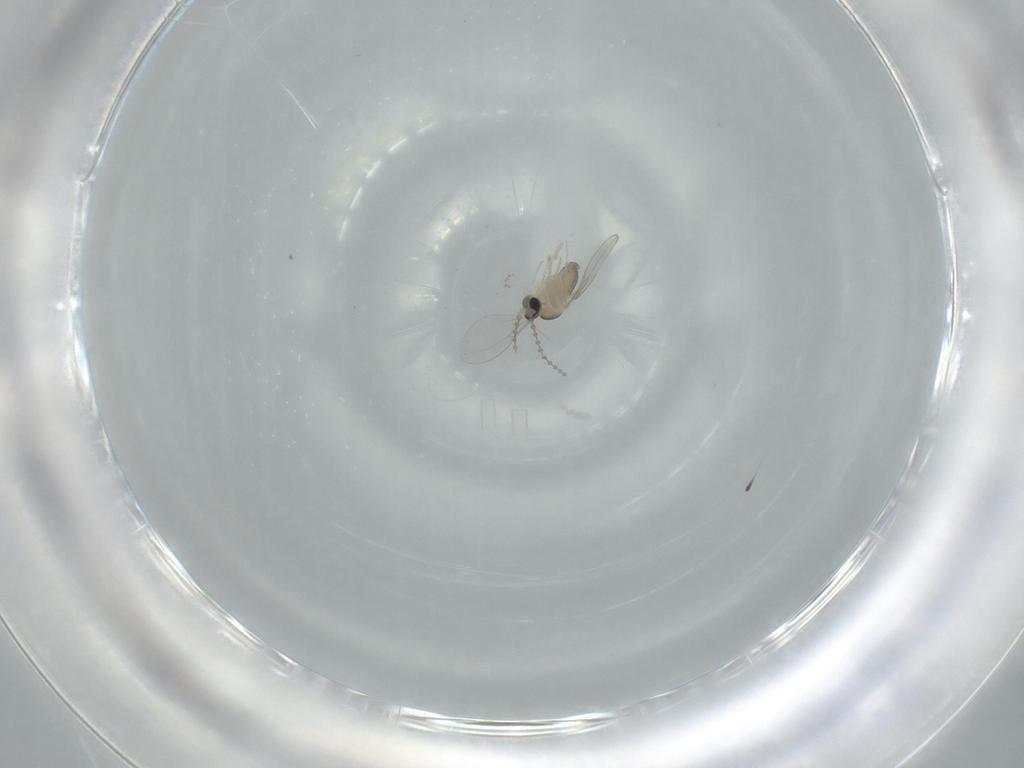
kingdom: Animalia
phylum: Arthropoda
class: Insecta
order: Diptera
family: Cecidomyiidae
